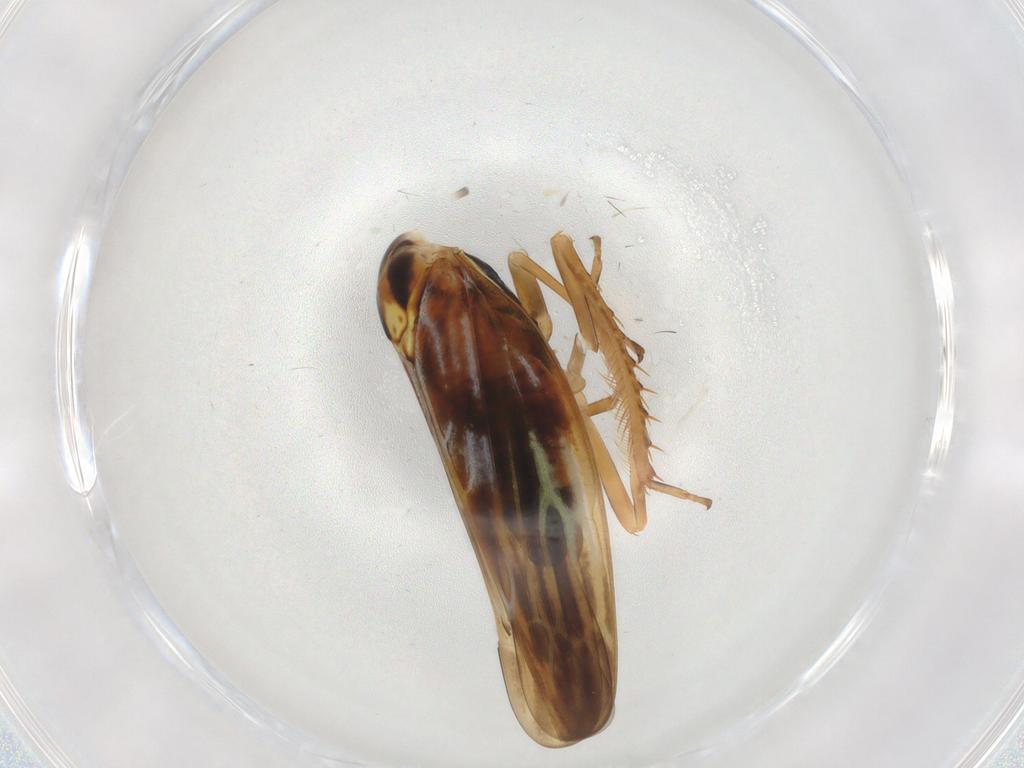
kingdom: Animalia
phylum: Arthropoda
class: Insecta
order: Hemiptera
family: Cicadellidae
